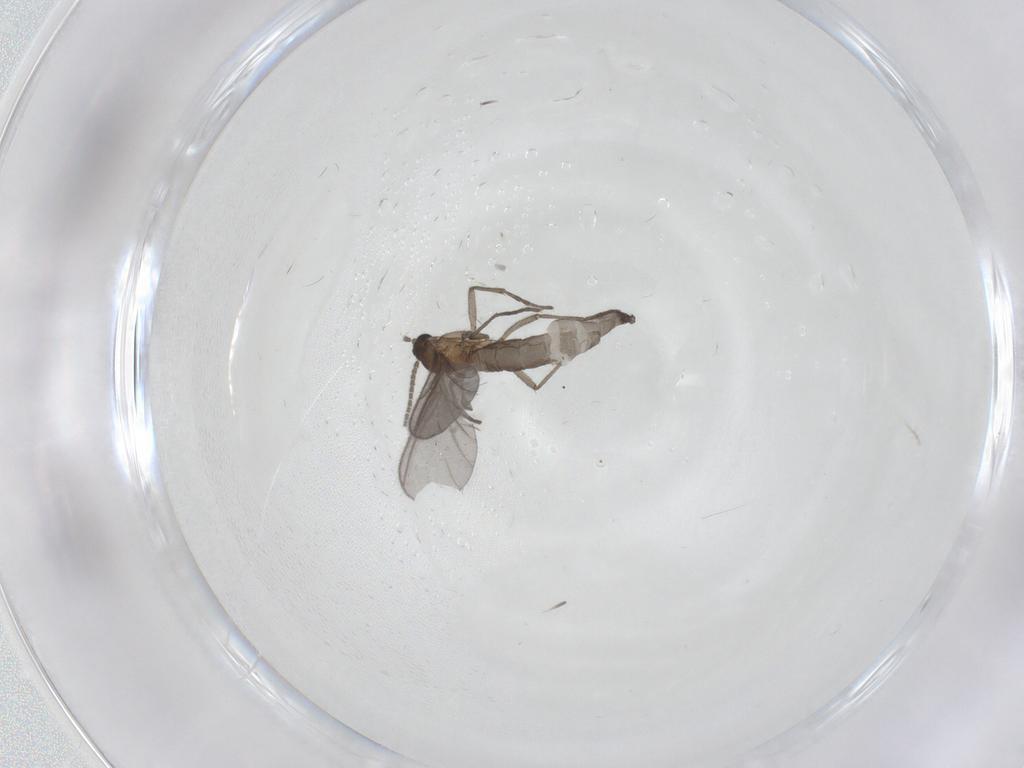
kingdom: Animalia
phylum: Arthropoda
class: Insecta
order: Diptera
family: Sciaridae
